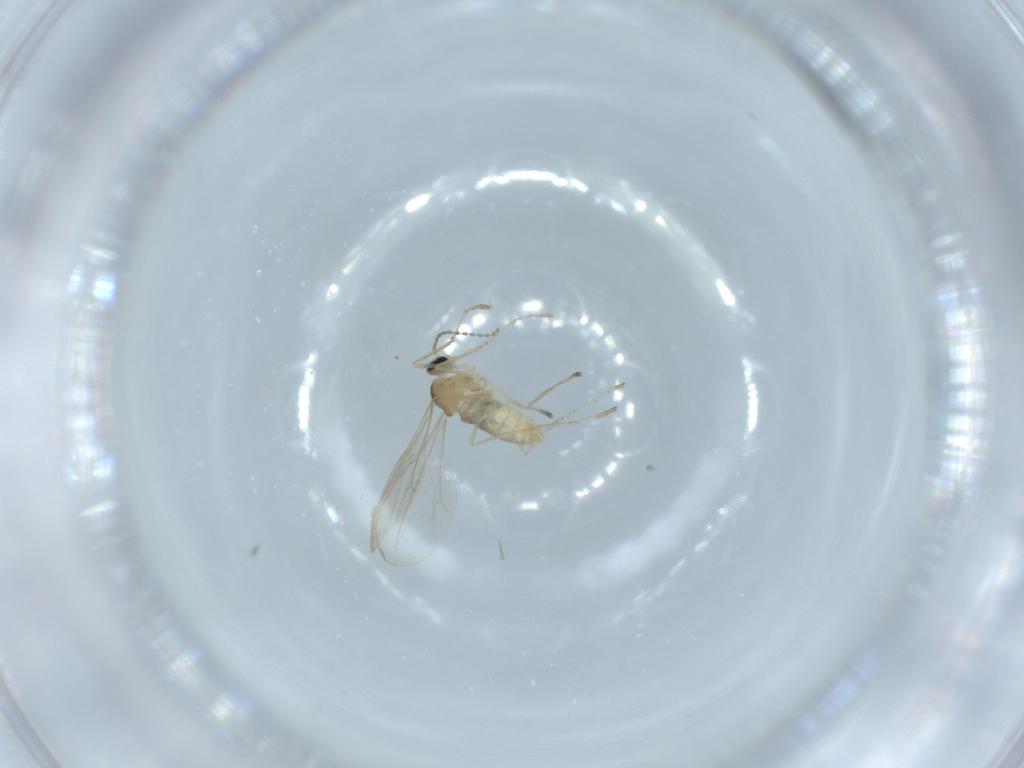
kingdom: Animalia
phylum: Arthropoda
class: Insecta
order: Diptera
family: Cecidomyiidae
